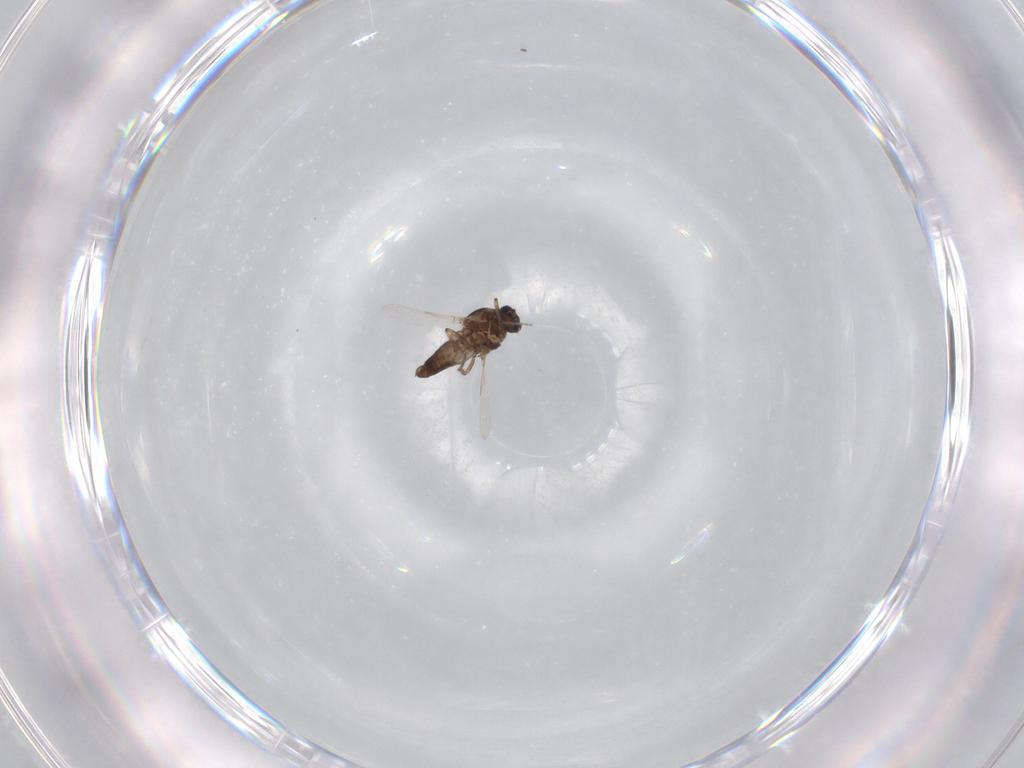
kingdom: Animalia
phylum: Arthropoda
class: Insecta
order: Diptera
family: Ceratopogonidae
